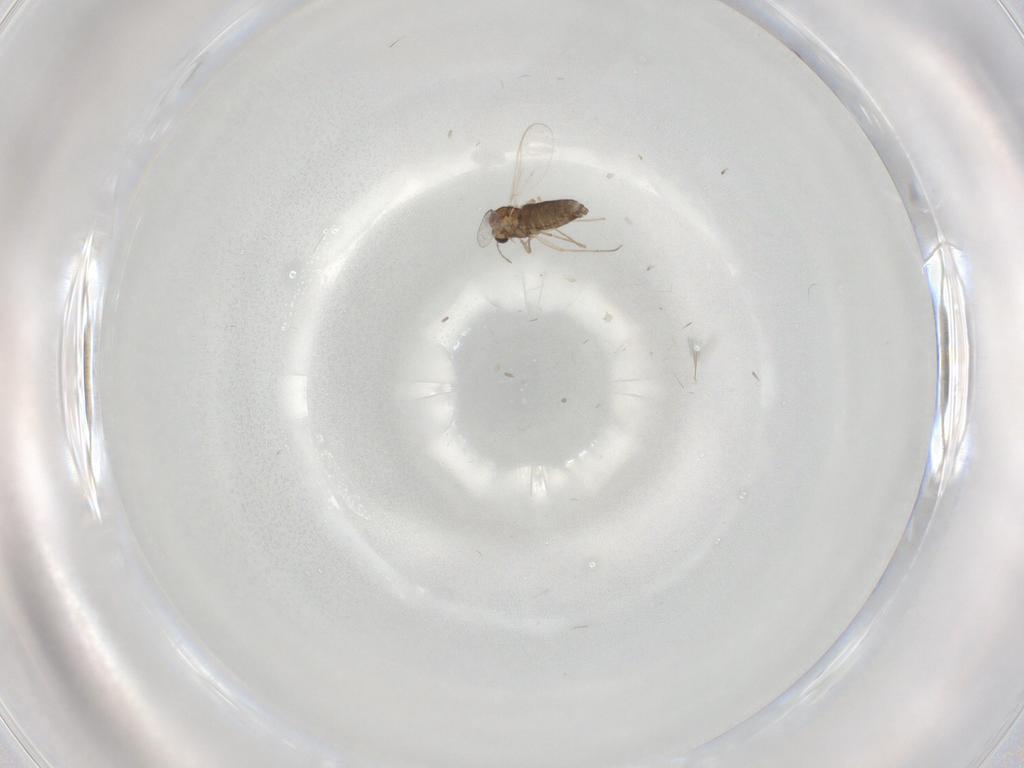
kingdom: Animalia
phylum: Arthropoda
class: Insecta
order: Diptera
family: Chironomidae
